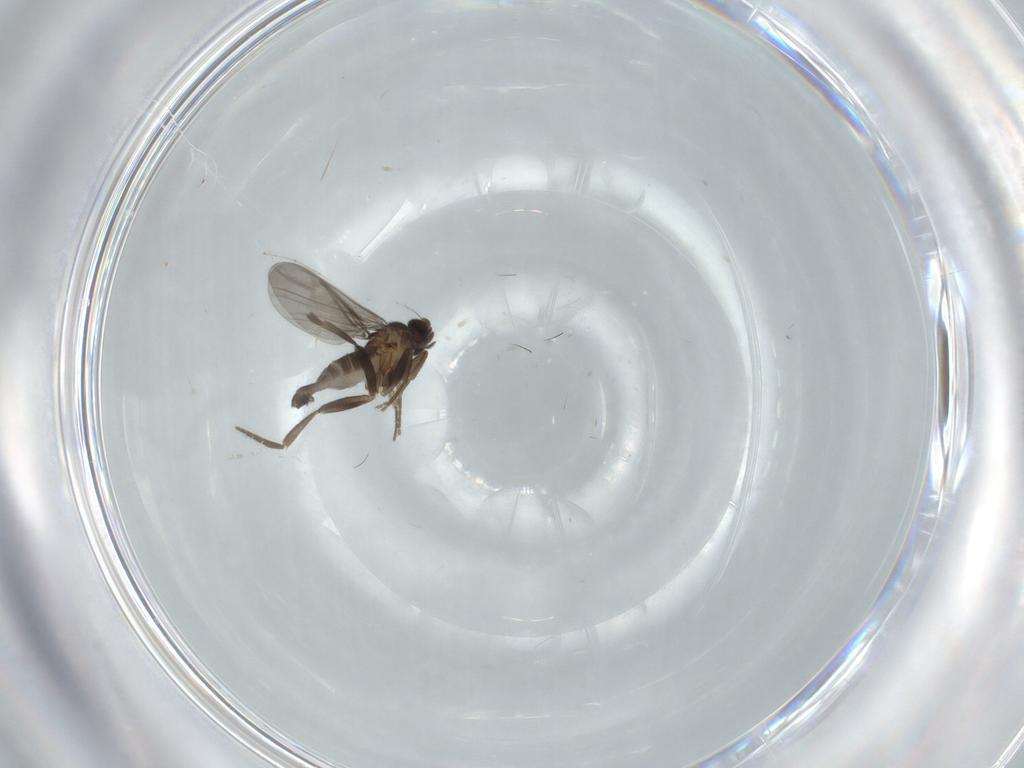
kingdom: Animalia
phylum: Arthropoda
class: Insecta
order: Diptera
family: Cecidomyiidae
